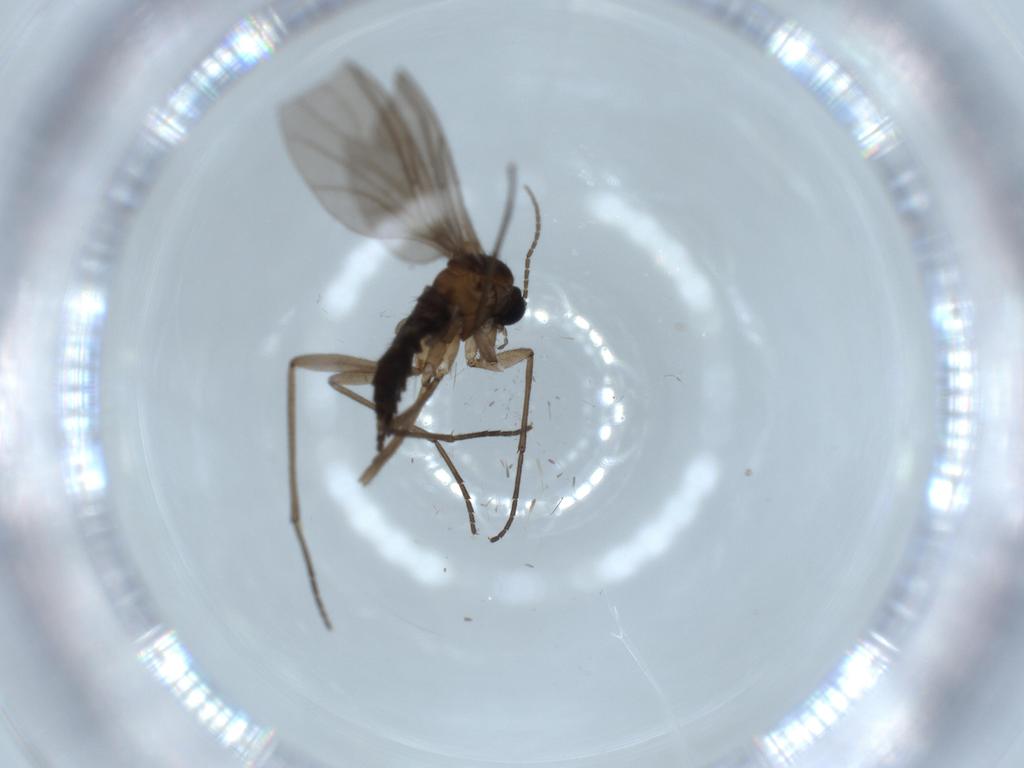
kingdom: Animalia
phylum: Arthropoda
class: Insecta
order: Diptera
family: Sciaridae
